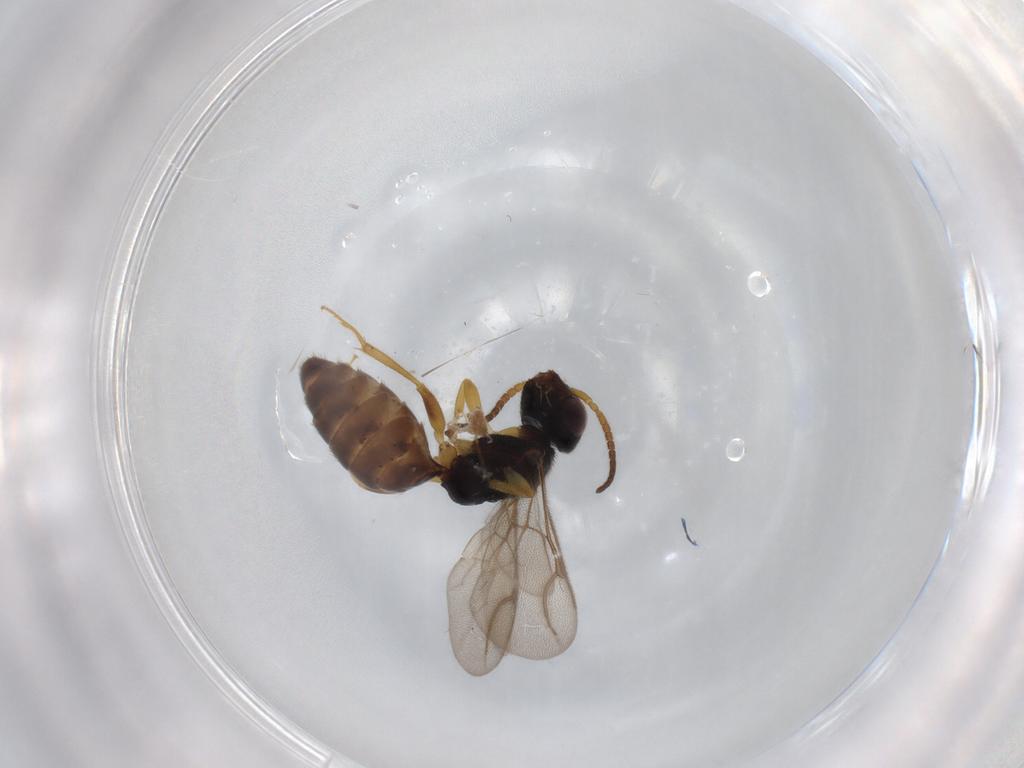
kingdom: Animalia
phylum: Arthropoda
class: Insecta
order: Hymenoptera
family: Bethylidae
